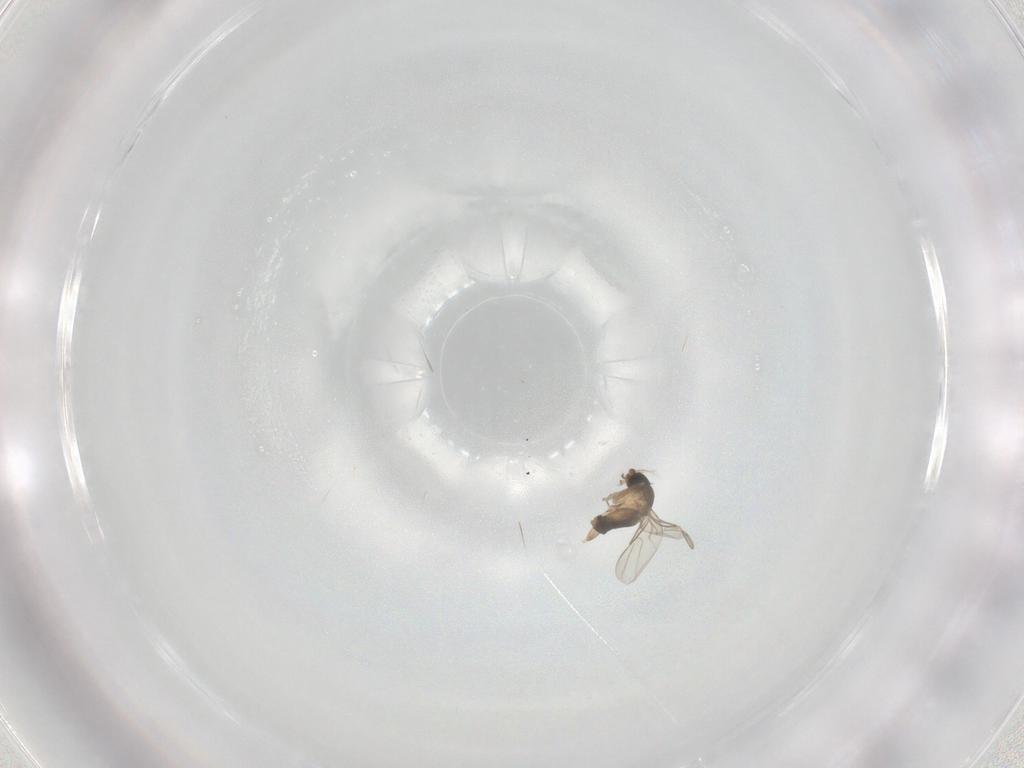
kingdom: Animalia
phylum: Arthropoda
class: Insecta
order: Diptera
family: Phoridae
